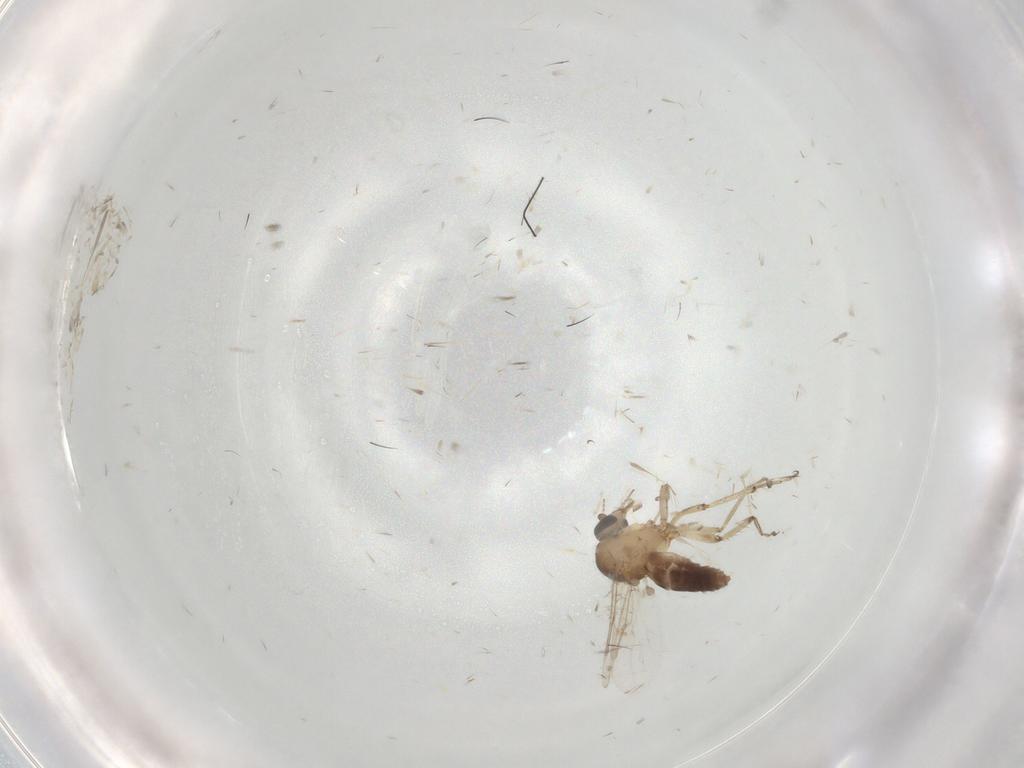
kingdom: Animalia
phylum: Arthropoda
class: Insecta
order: Diptera
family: Ceratopogonidae
